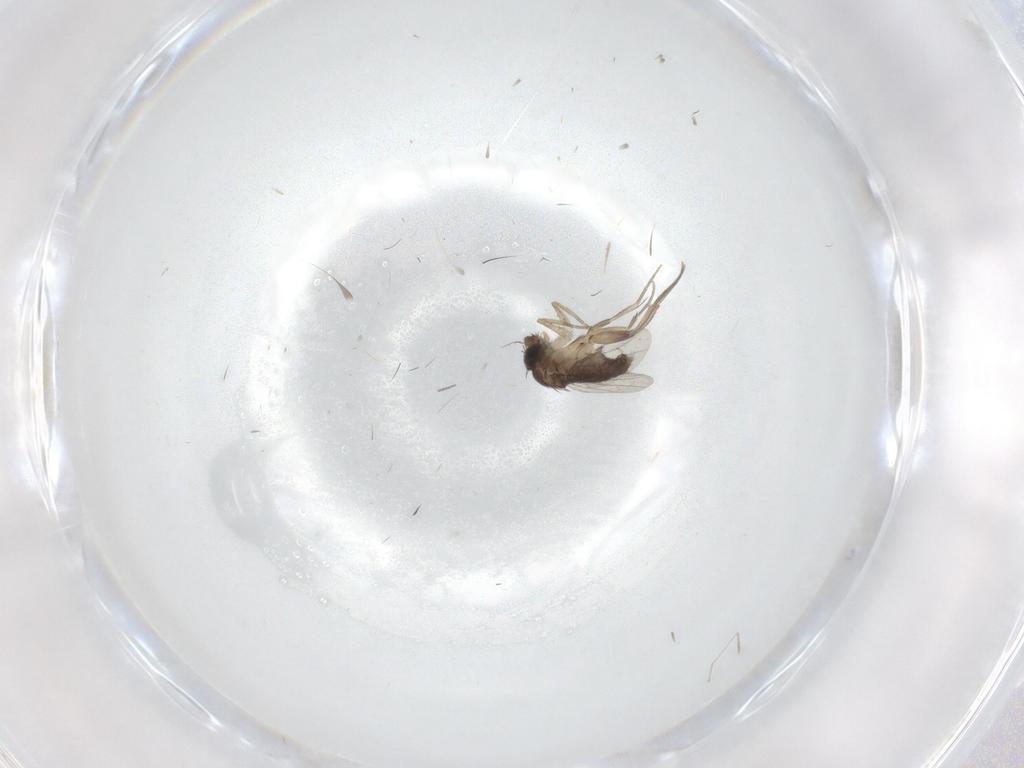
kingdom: Animalia
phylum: Arthropoda
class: Insecta
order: Diptera
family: Phoridae
